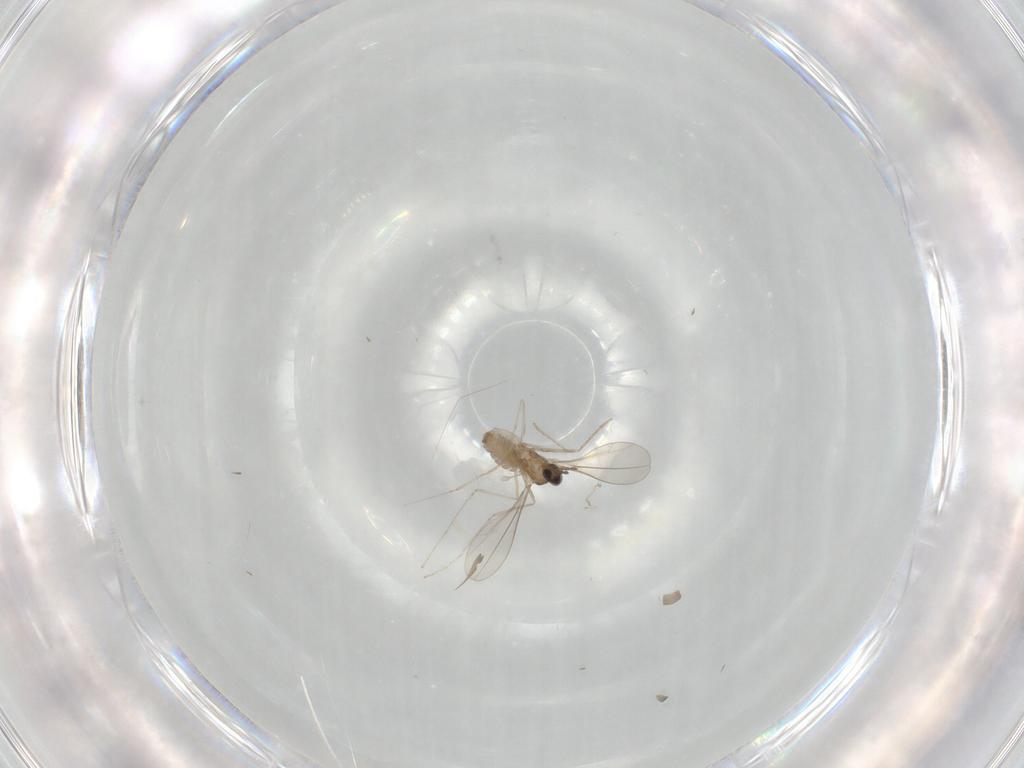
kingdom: Animalia
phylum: Arthropoda
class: Insecta
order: Diptera
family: Cecidomyiidae
